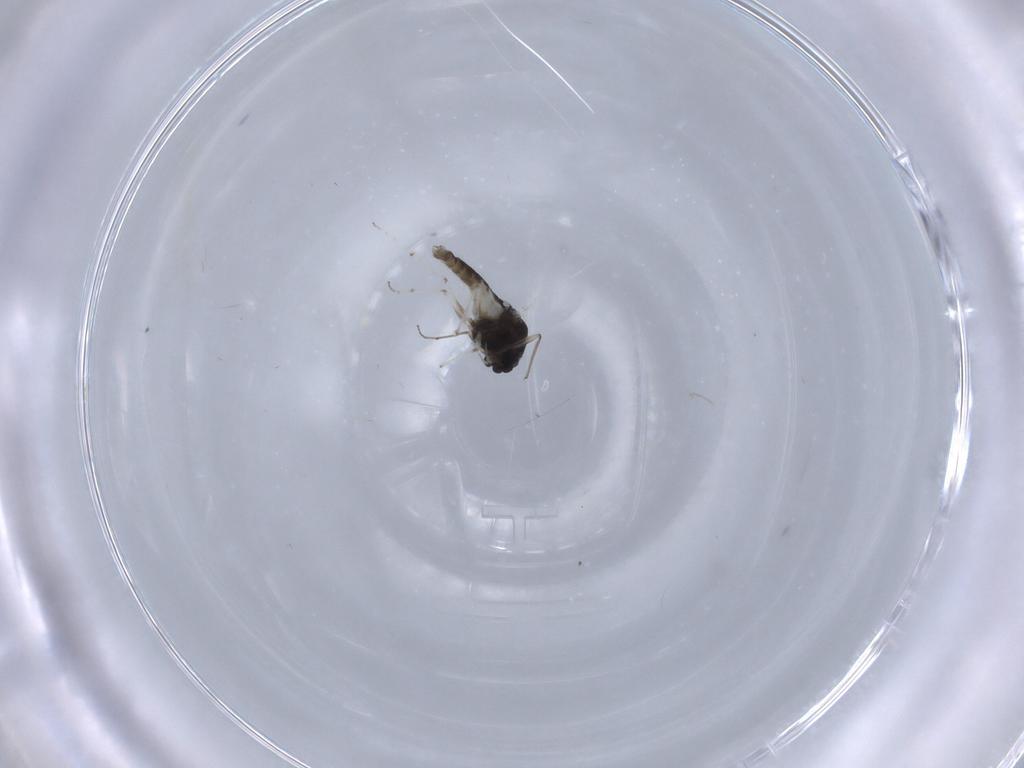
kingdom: Animalia
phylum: Arthropoda
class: Insecta
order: Diptera
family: Chironomidae
